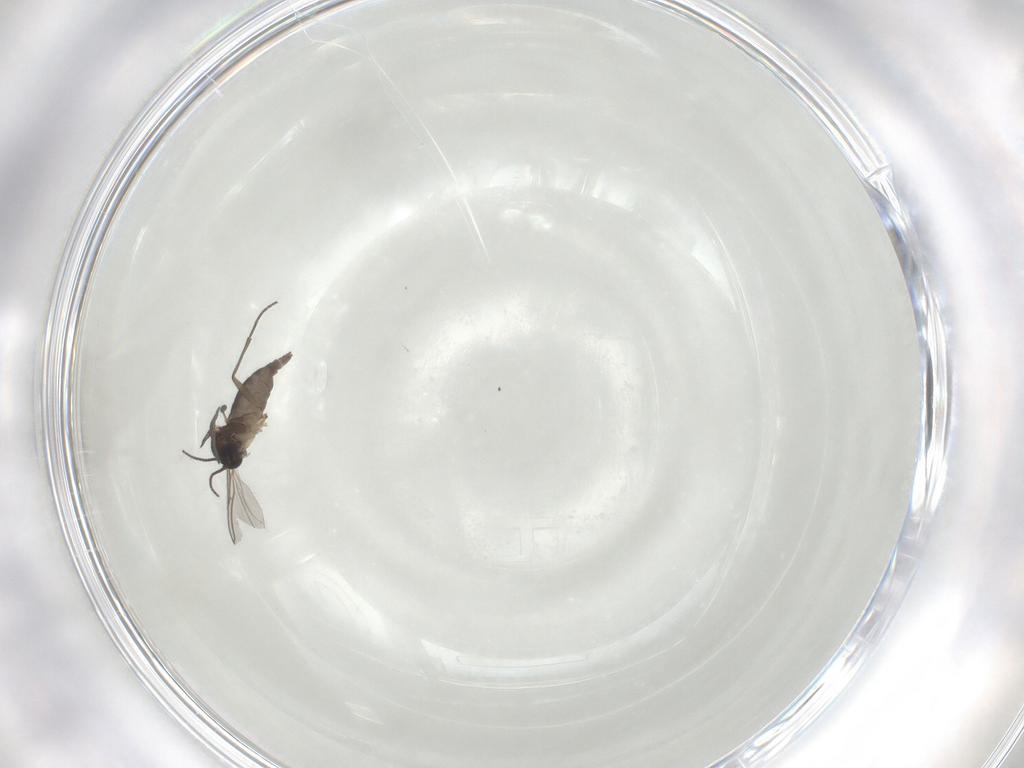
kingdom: Animalia
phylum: Arthropoda
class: Insecta
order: Diptera
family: Sciaridae
